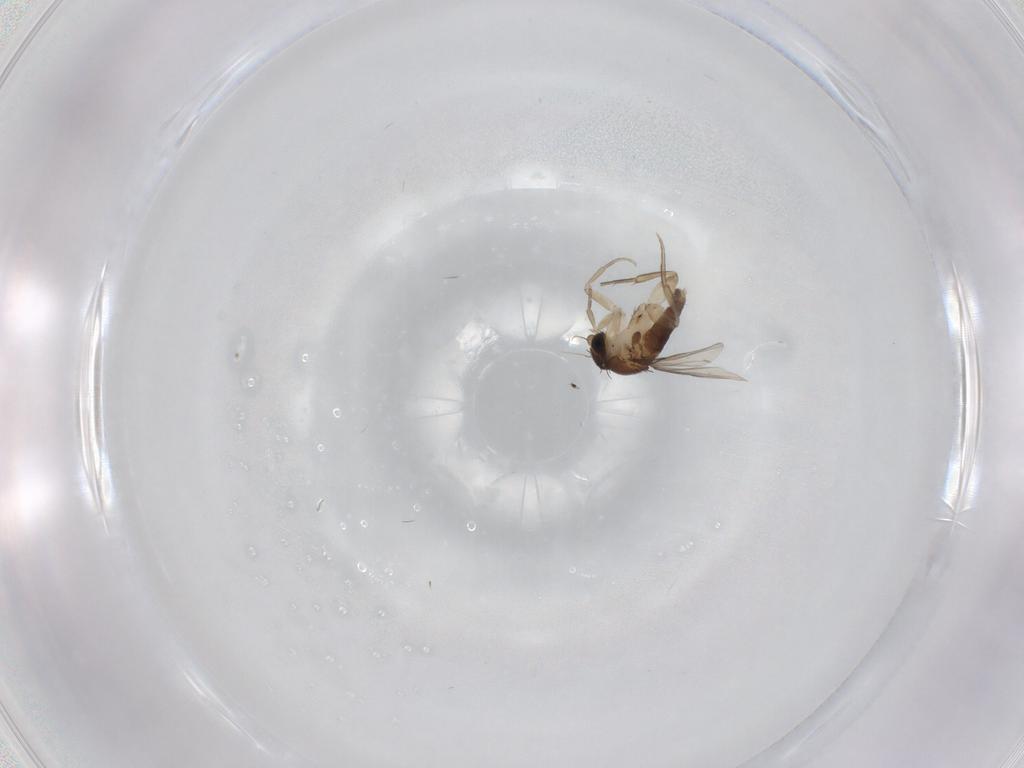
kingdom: Animalia
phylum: Arthropoda
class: Insecta
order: Diptera
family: Phoridae
